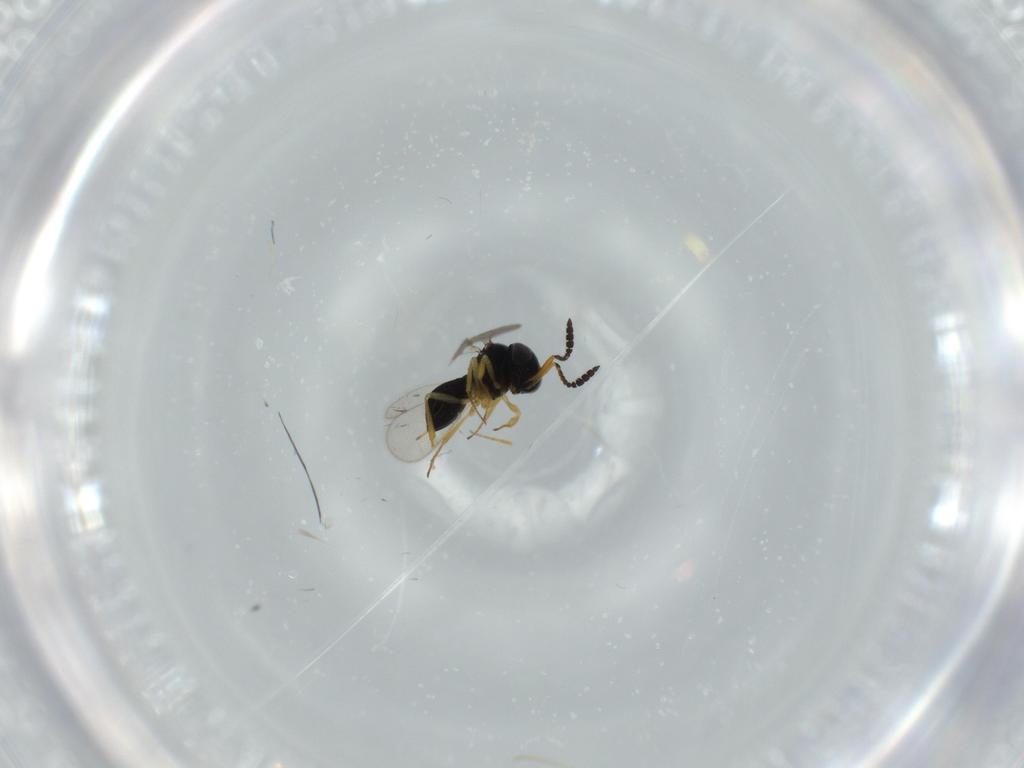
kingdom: Animalia
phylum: Arthropoda
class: Insecta
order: Hymenoptera
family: Scelionidae
